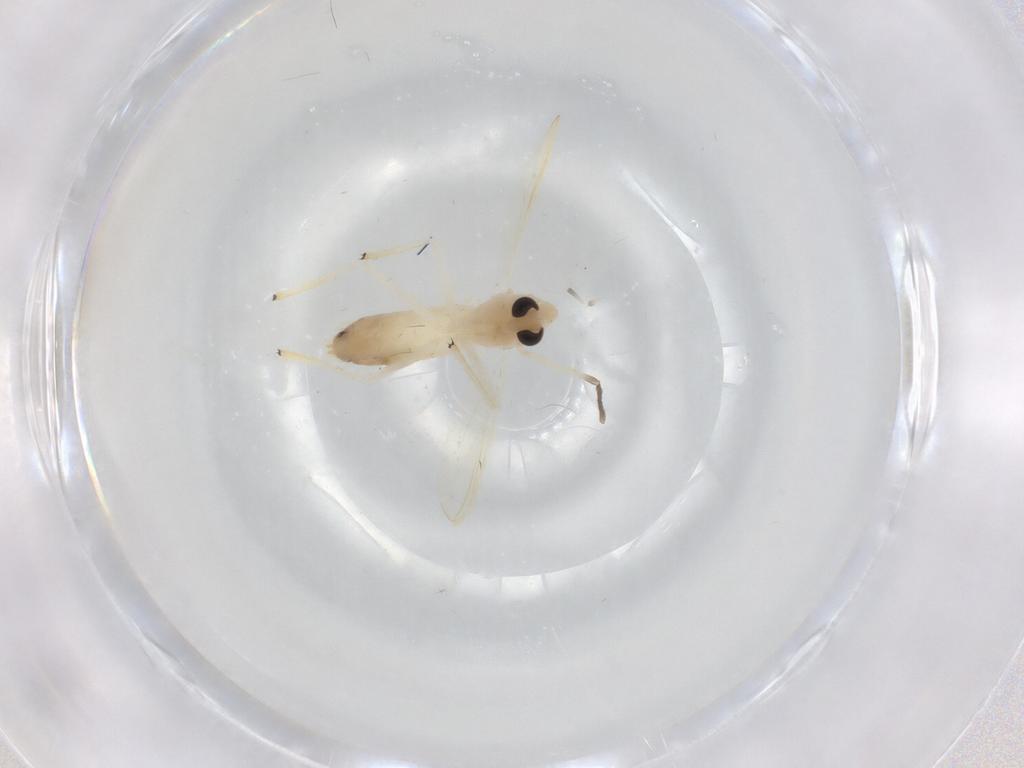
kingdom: Animalia
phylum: Arthropoda
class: Insecta
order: Diptera
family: Chironomidae
